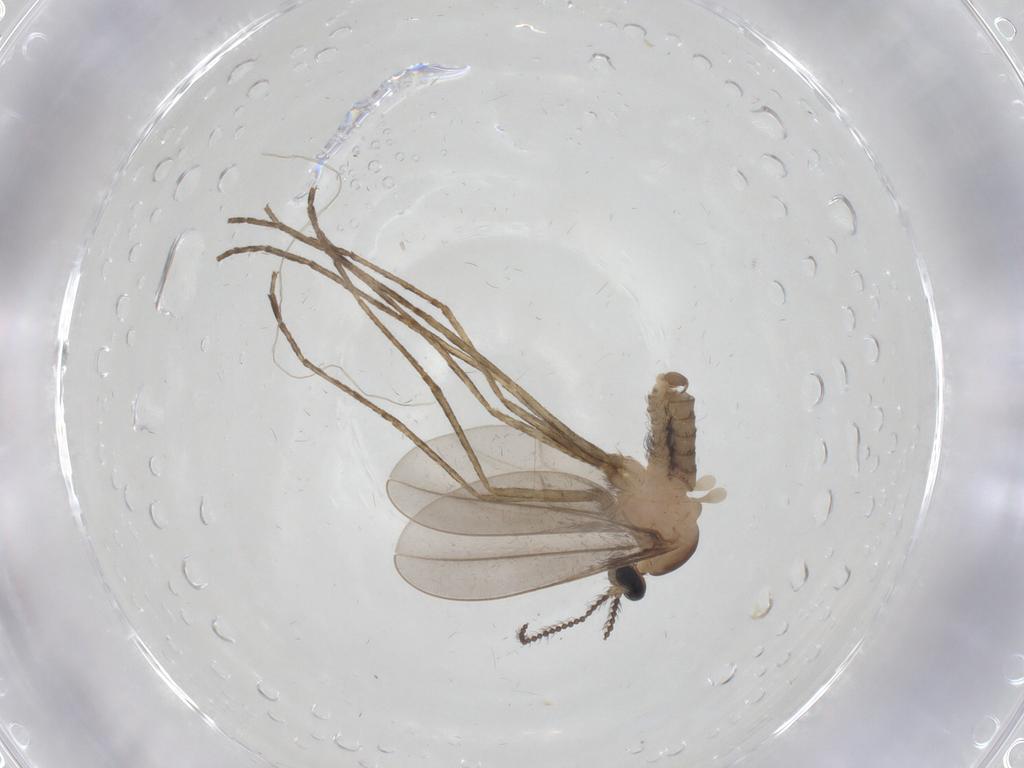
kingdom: Animalia
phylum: Arthropoda
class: Insecta
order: Diptera
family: Cecidomyiidae
